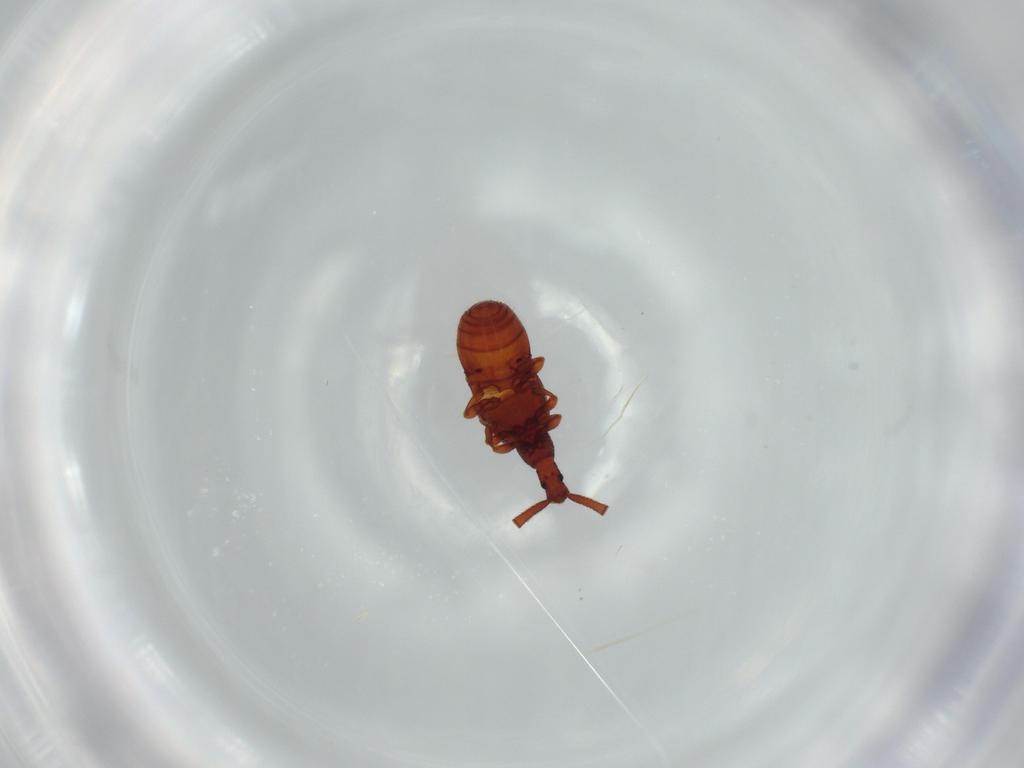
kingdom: Animalia
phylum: Arthropoda
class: Insecta
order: Coleoptera
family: Staphylinidae
